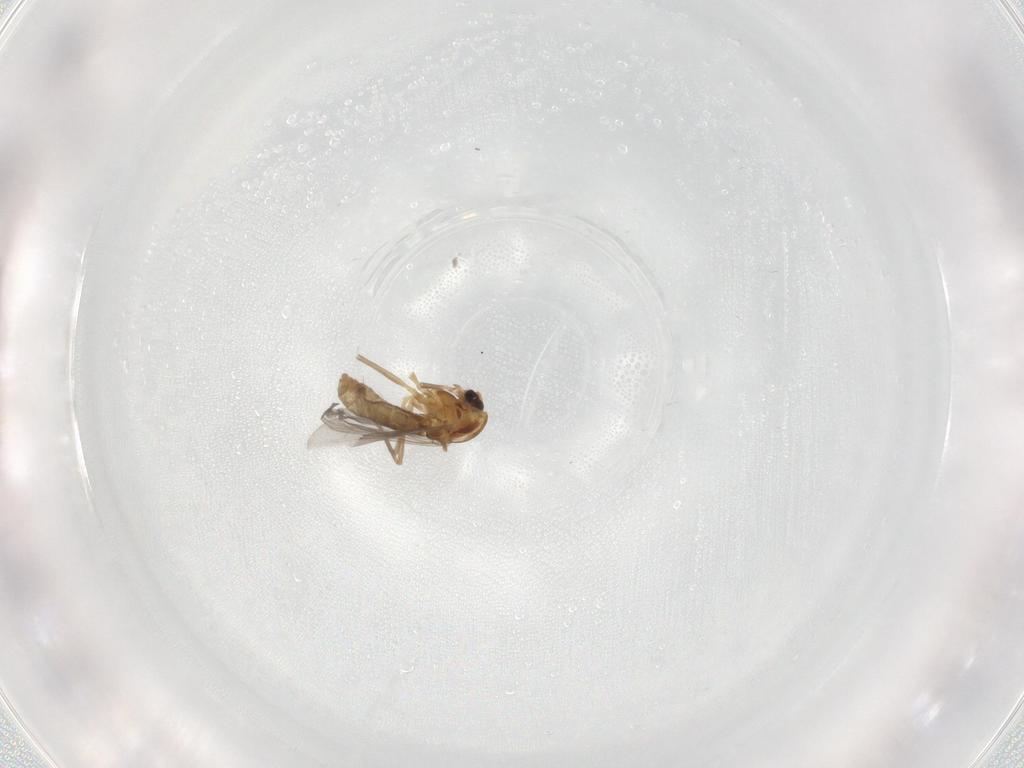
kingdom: Animalia
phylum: Arthropoda
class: Insecta
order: Diptera
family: Chironomidae
